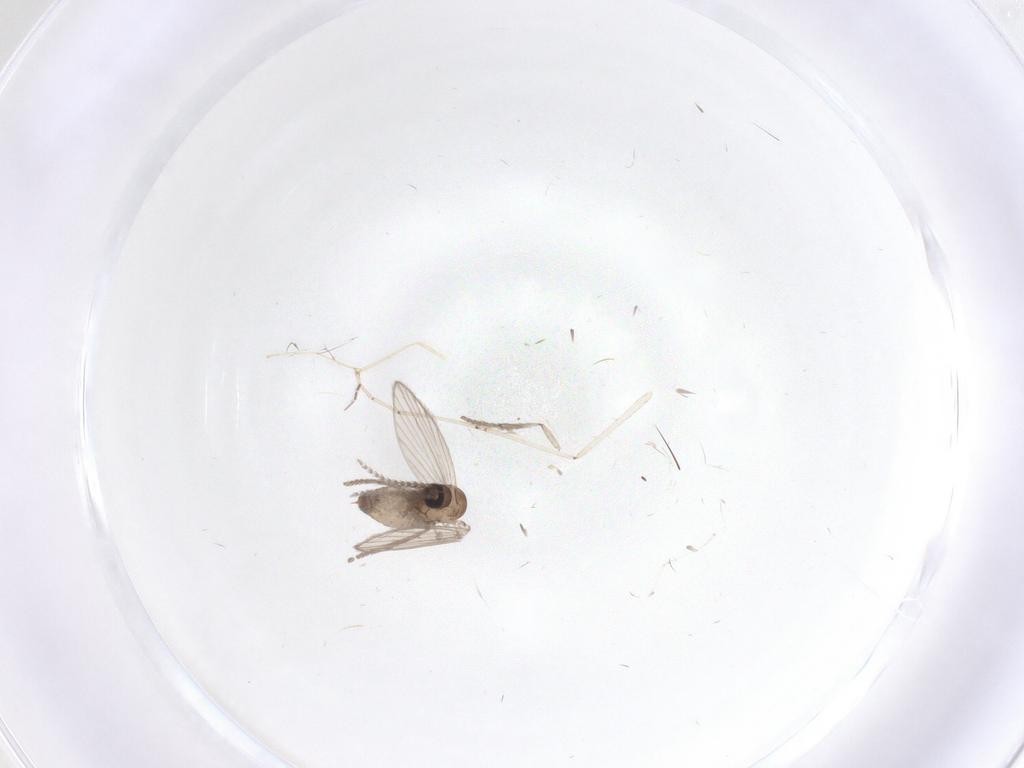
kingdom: Animalia
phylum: Arthropoda
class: Insecta
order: Diptera
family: Psychodidae
